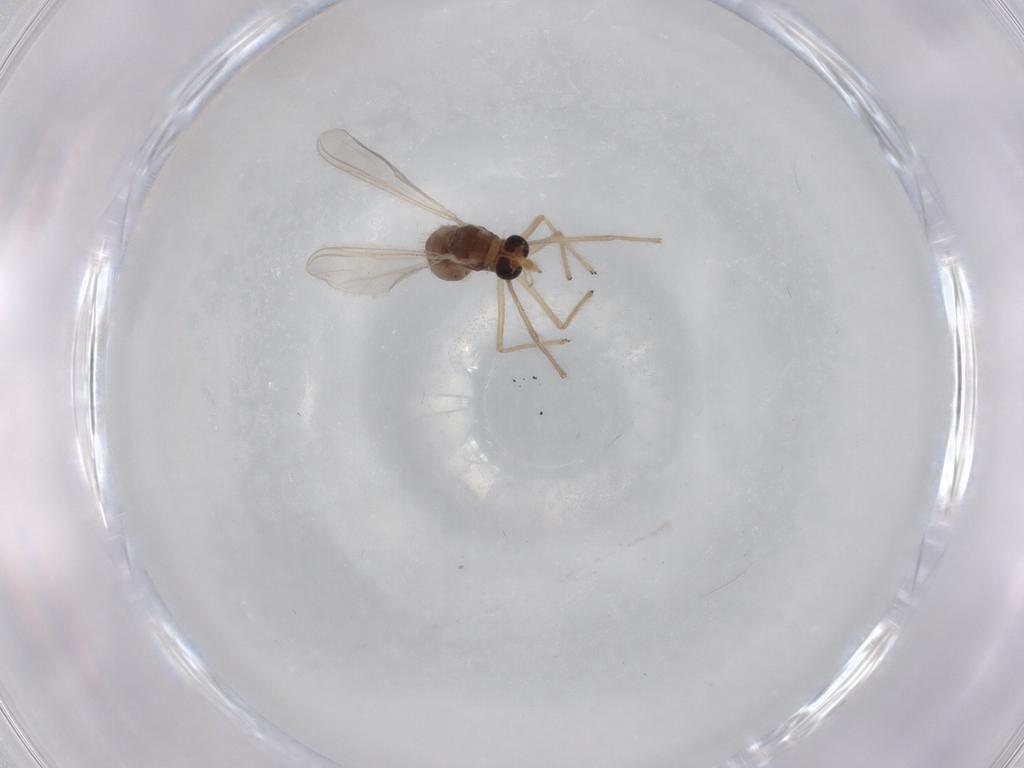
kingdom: Animalia
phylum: Arthropoda
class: Insecta
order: Diptera
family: Chironomidae
